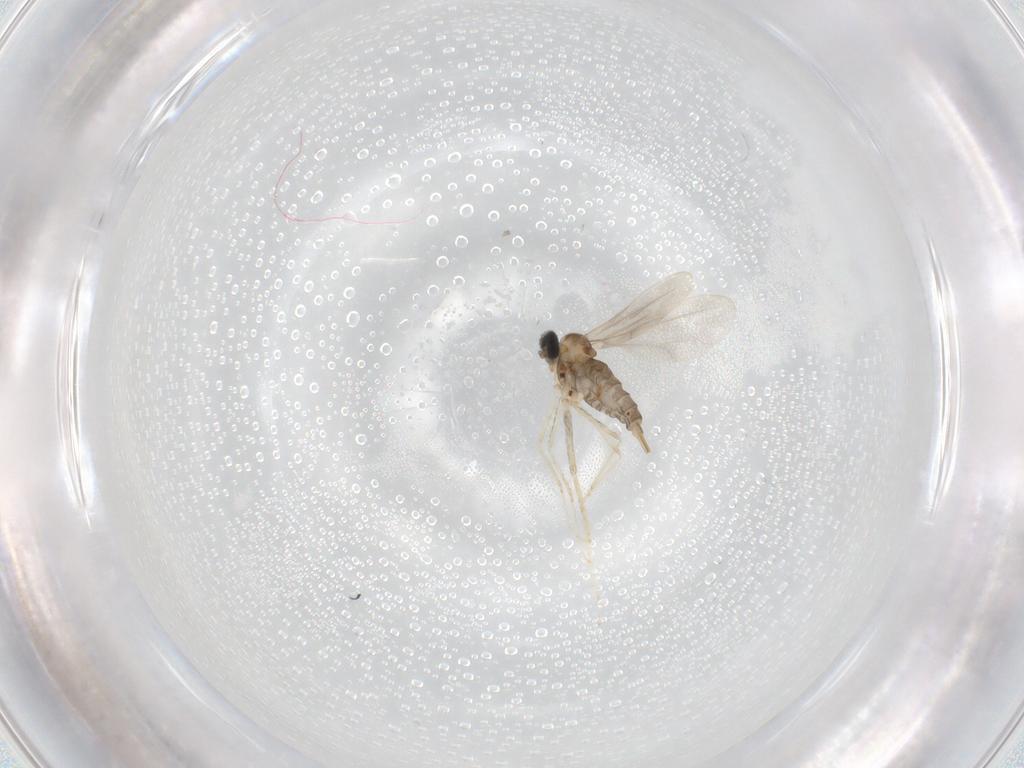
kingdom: Animalia
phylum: Arthropoda
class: Insecta
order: Diptera
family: Cecidomyiidae
